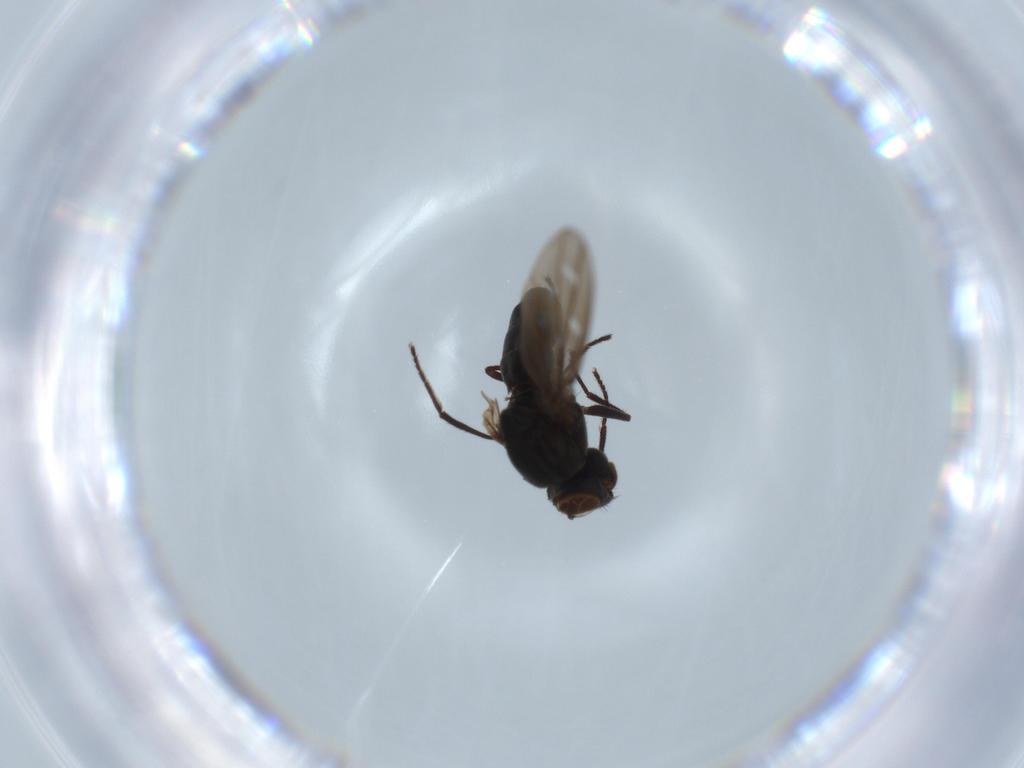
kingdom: Animalia
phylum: Arthropoda
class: Insecta
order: Diptera
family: Ephydridae
